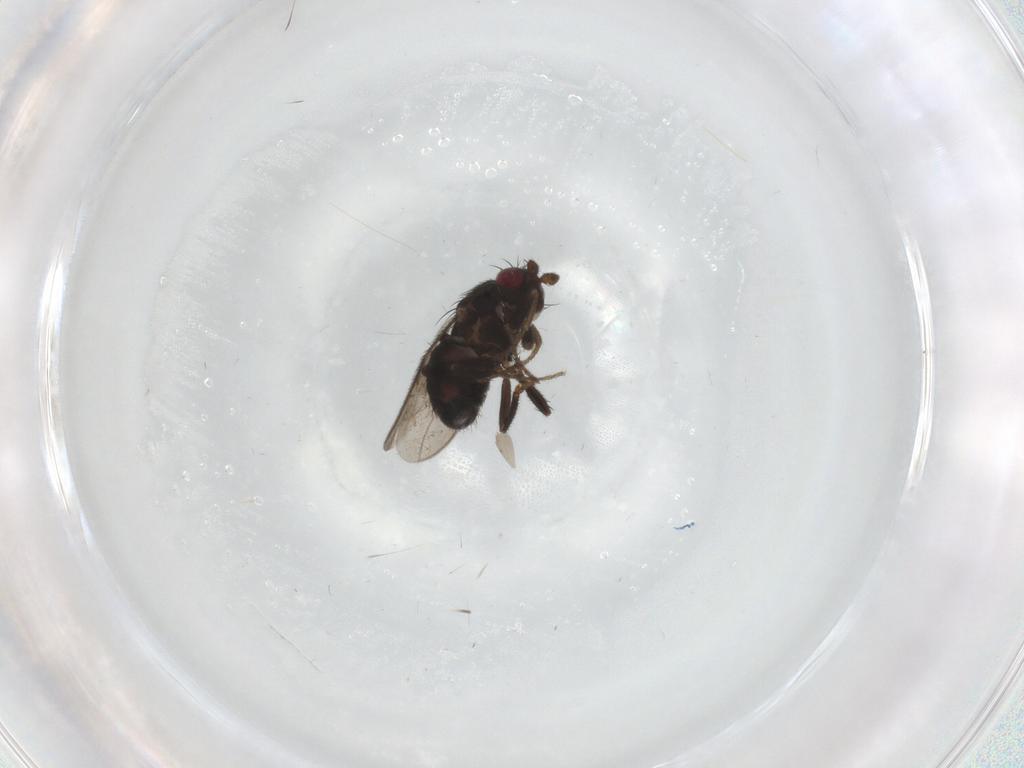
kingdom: Animalia
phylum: Arthropoda
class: Insecta
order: Diptera
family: Sphaeroceridae
